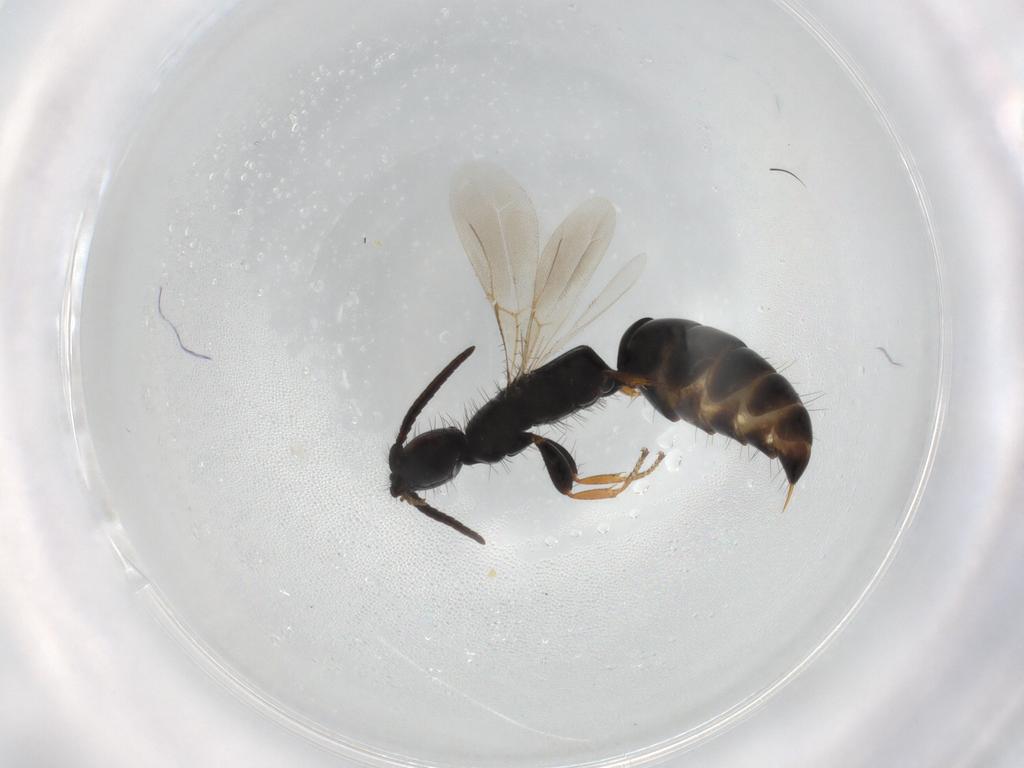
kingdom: Animalia
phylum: Arthropoda
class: Insecta
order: Hymenoptera
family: Bethylidae
